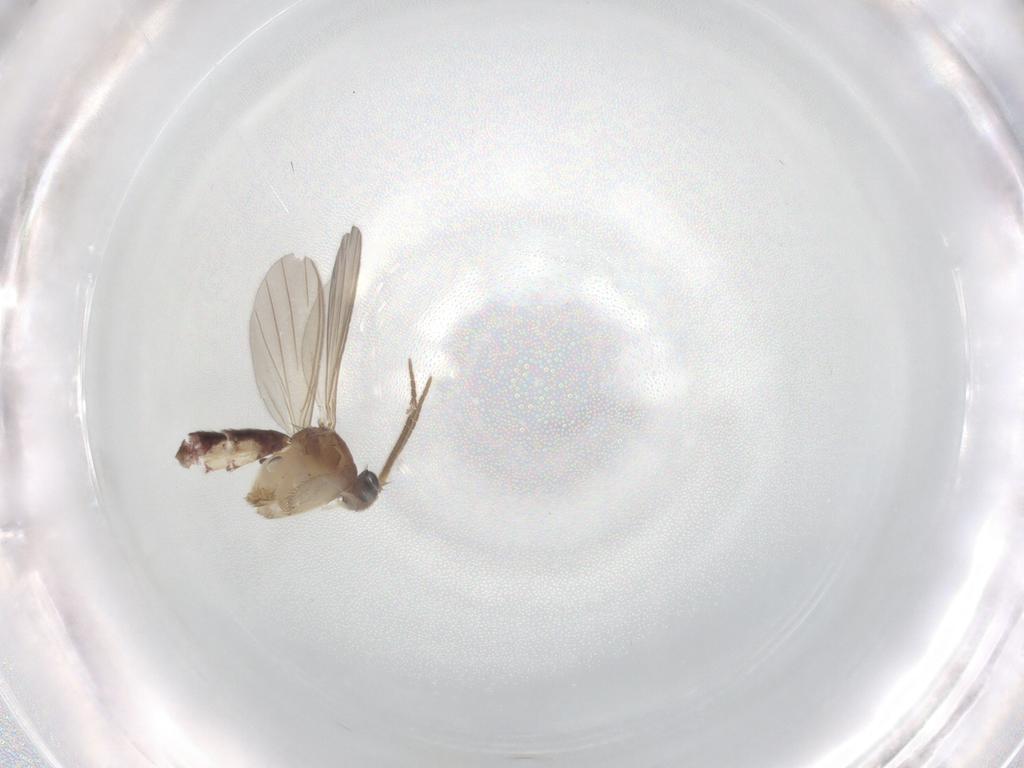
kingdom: Animalia
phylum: Arthropoda
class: Insecta
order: Diptera
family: Mycetophilidae
